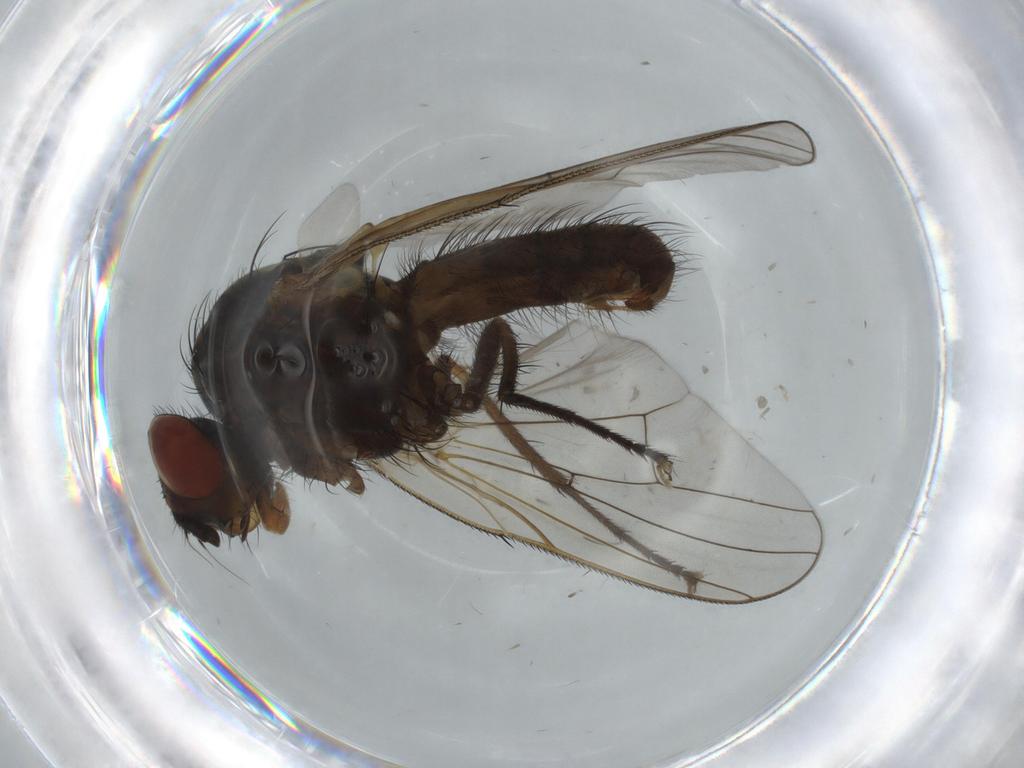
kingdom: Animalia
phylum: Arthropoda
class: Insecta
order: Diptera
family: Anthomyiidae
